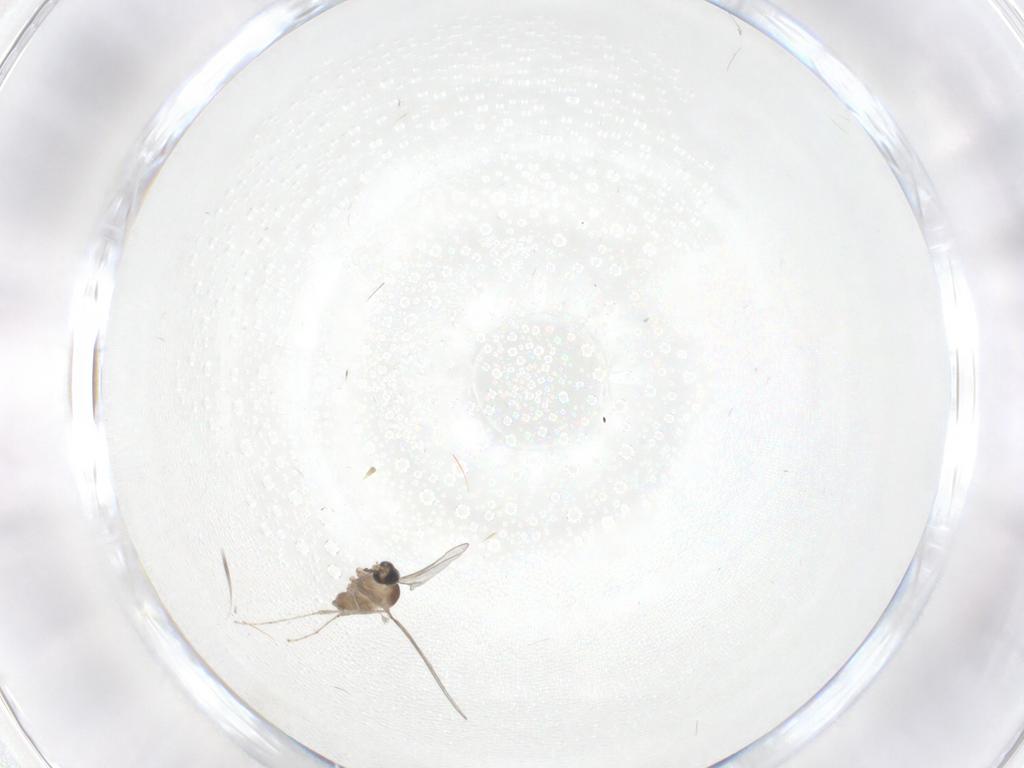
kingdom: Animalia
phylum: Arthropoda
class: Insecta
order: Diptera
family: Cecidomyiidae
